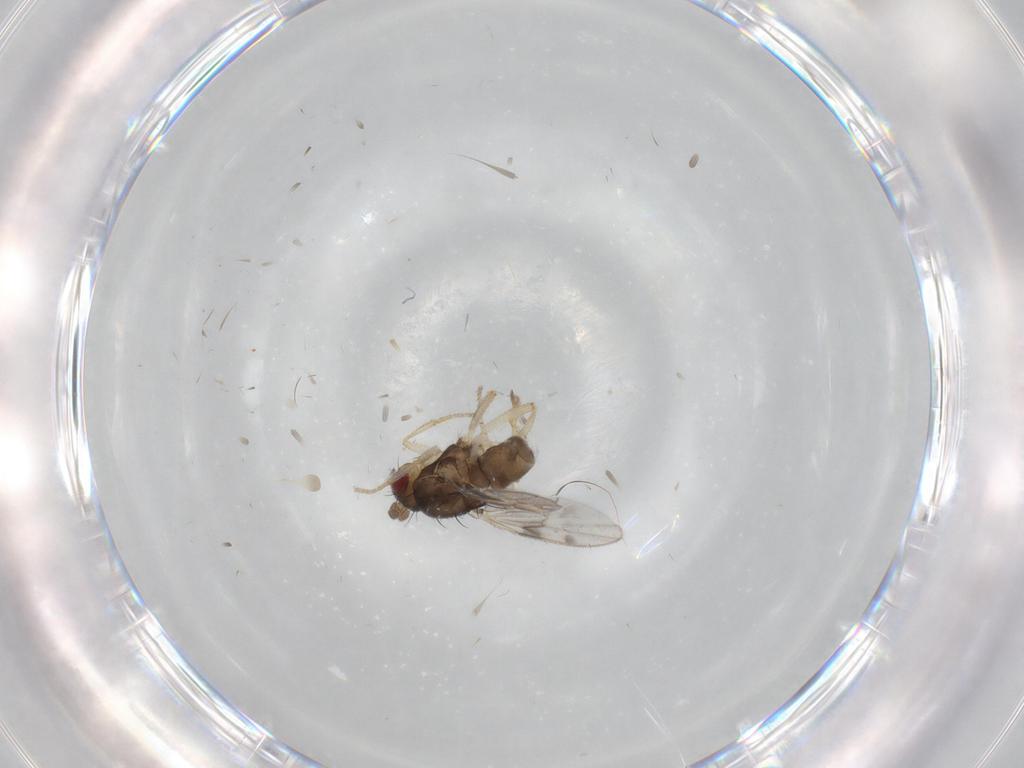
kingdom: Animalia
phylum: Arthropoda
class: Insecta
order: Diptera
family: Sphaeroceridae
